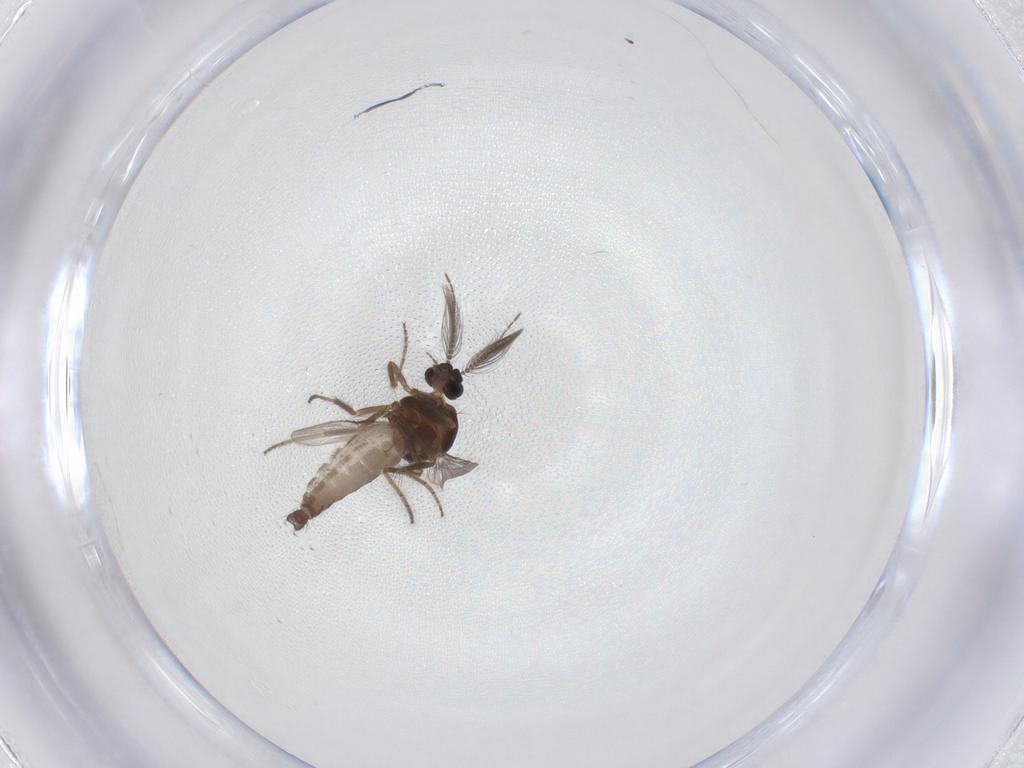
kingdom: Animalia
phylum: Arthropoda
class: Insecta
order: Diptera
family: Ceratopogonidae
